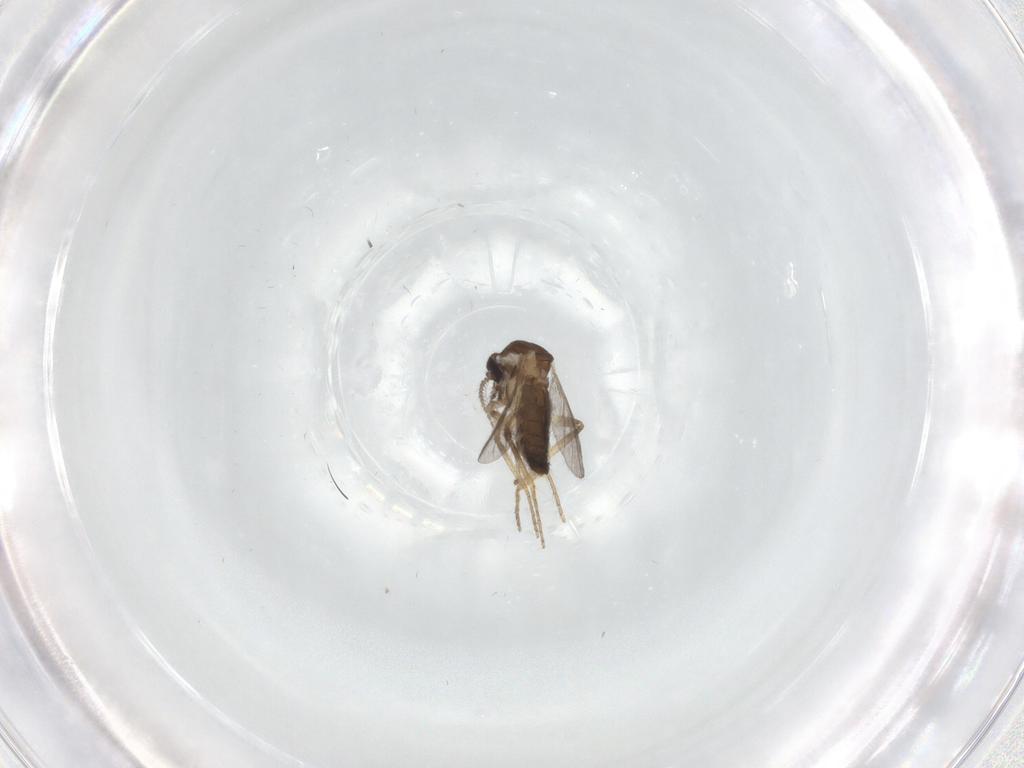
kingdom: Animalia
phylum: Arthropoda
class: Insecta
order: Diptera
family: Ceratopogonidae
